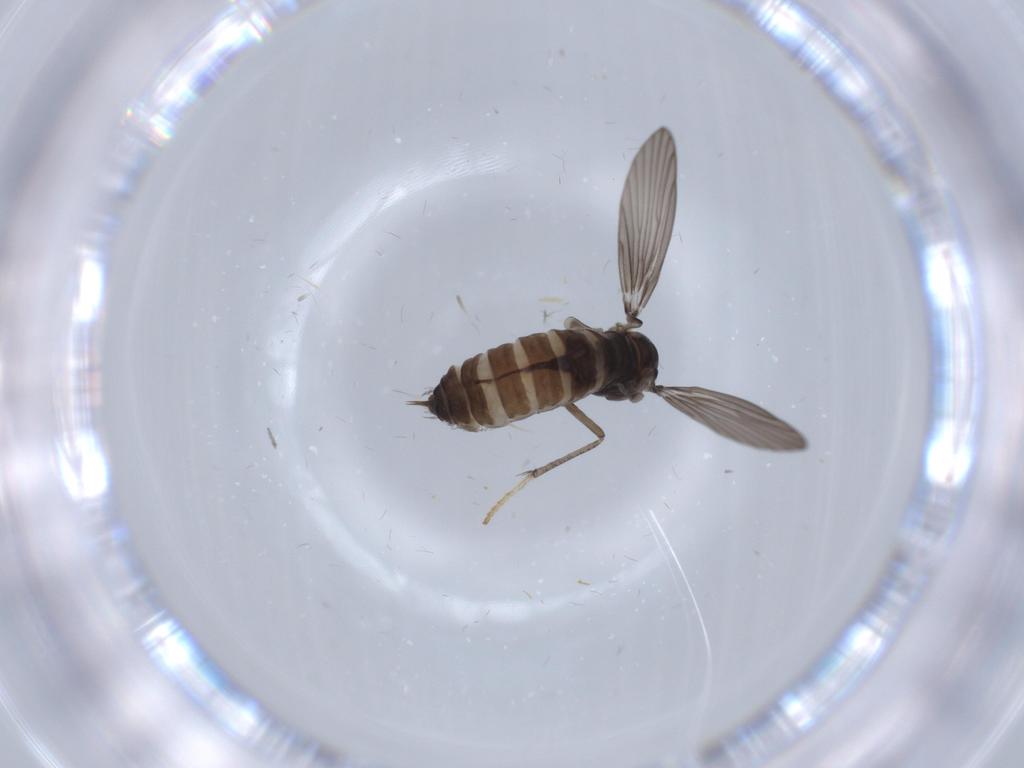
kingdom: Animalia
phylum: Arthropoda
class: Insecta
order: Diptera
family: Psychodidae
